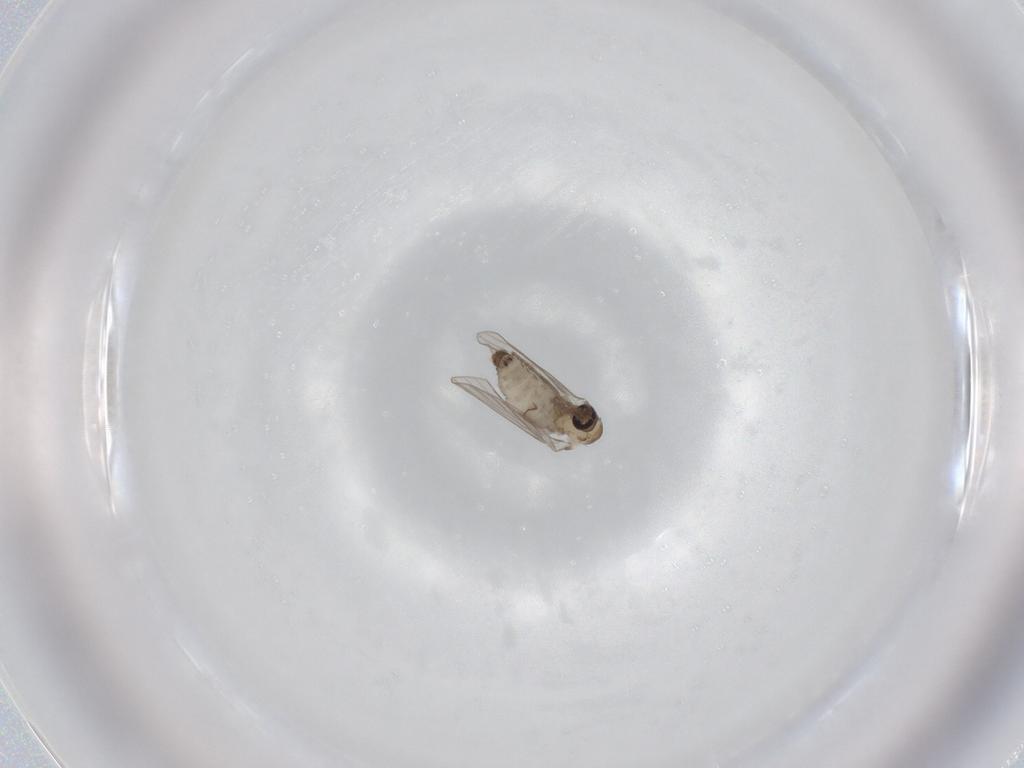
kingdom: Animalia
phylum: Arthropoda
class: Insecta
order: Diptera
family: Psychodidae
